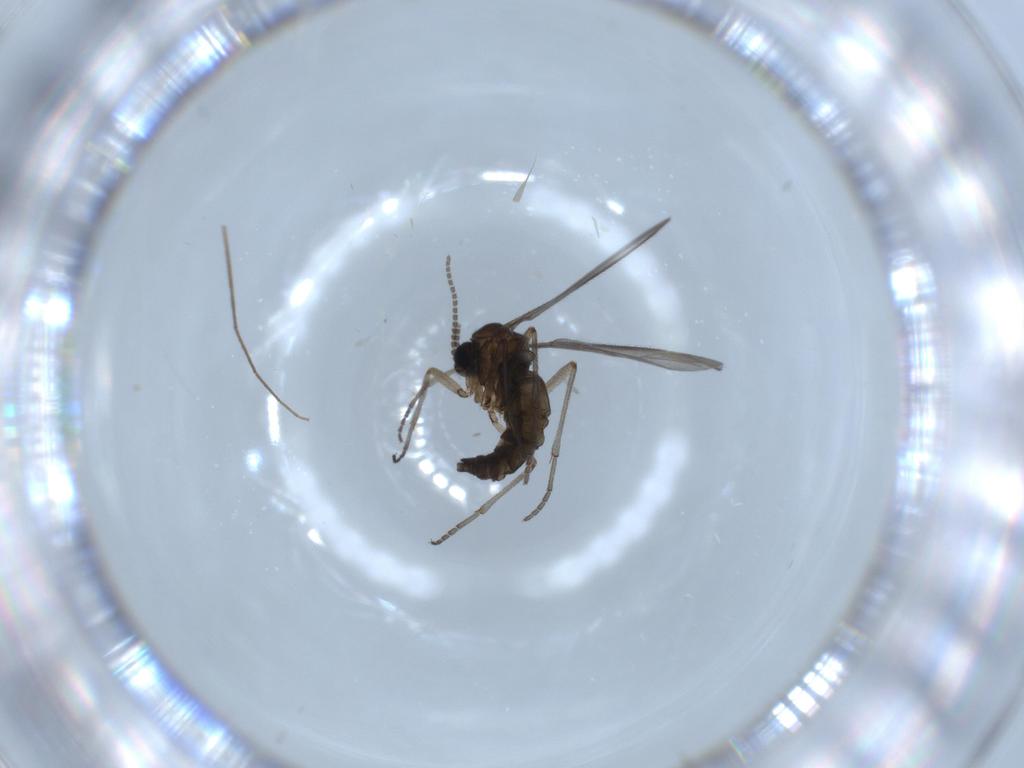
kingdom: Animalia
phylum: Arthropoda
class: Insecta
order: Diptera
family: Sciaridae
